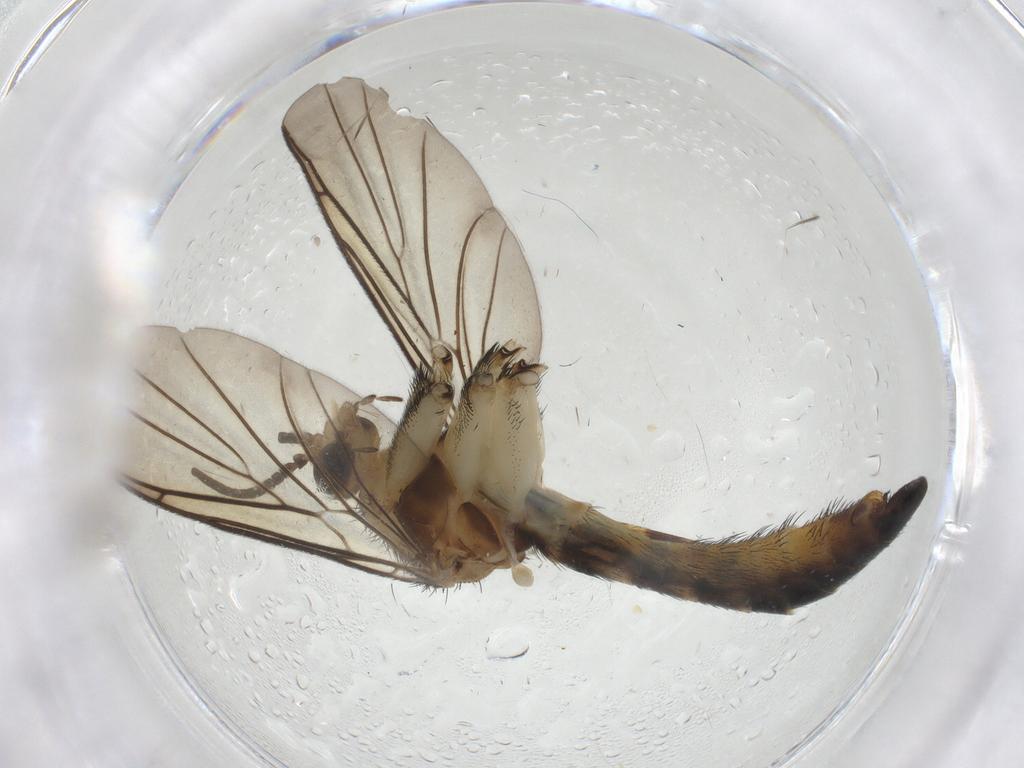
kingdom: Animalia
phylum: Arthropoda
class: Insecta
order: Diptera
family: Keroplatidae
